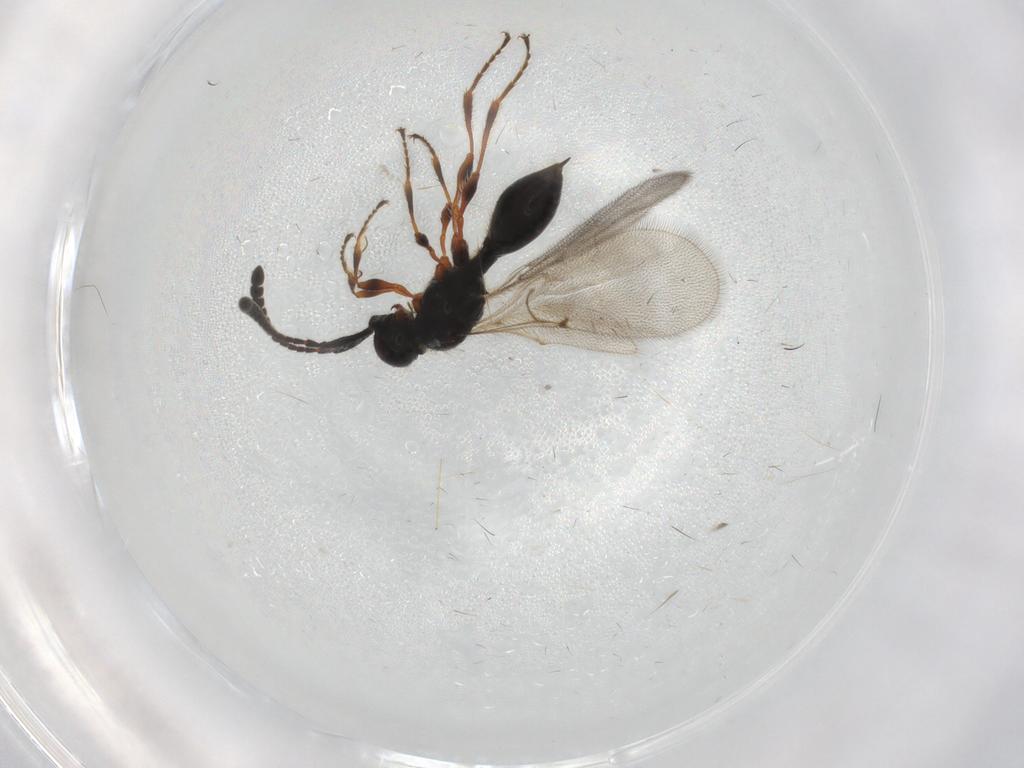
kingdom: Animalia
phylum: Arthropoda
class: Insecta
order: Hymenoptera
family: Diapriidae
